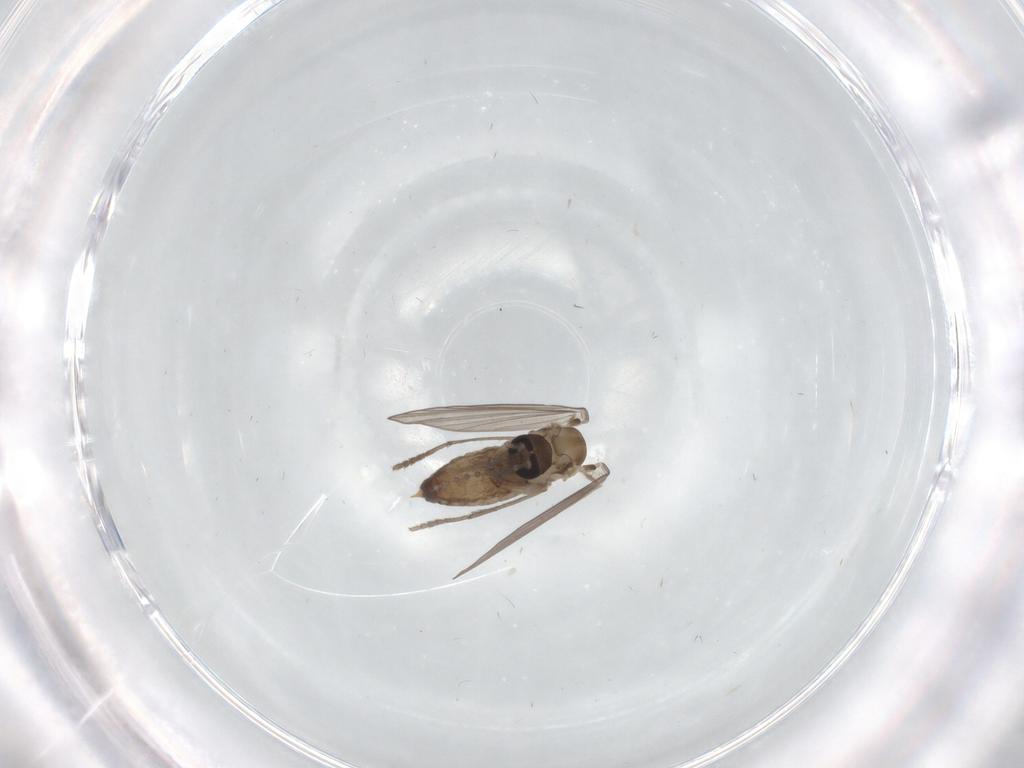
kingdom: Animalia
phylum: Arthropoda
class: Insecta
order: Diptera
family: Psychodidae
